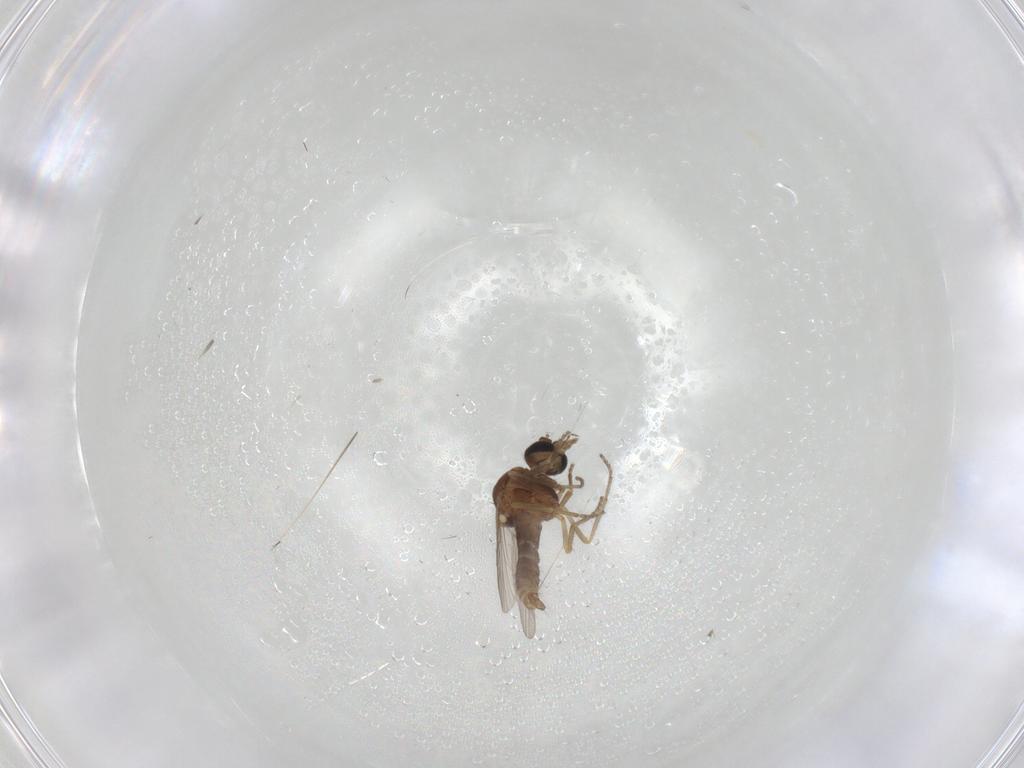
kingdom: Animalia
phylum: Arthropoda
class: Insecta
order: Diptera
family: Ceratopogonidae
